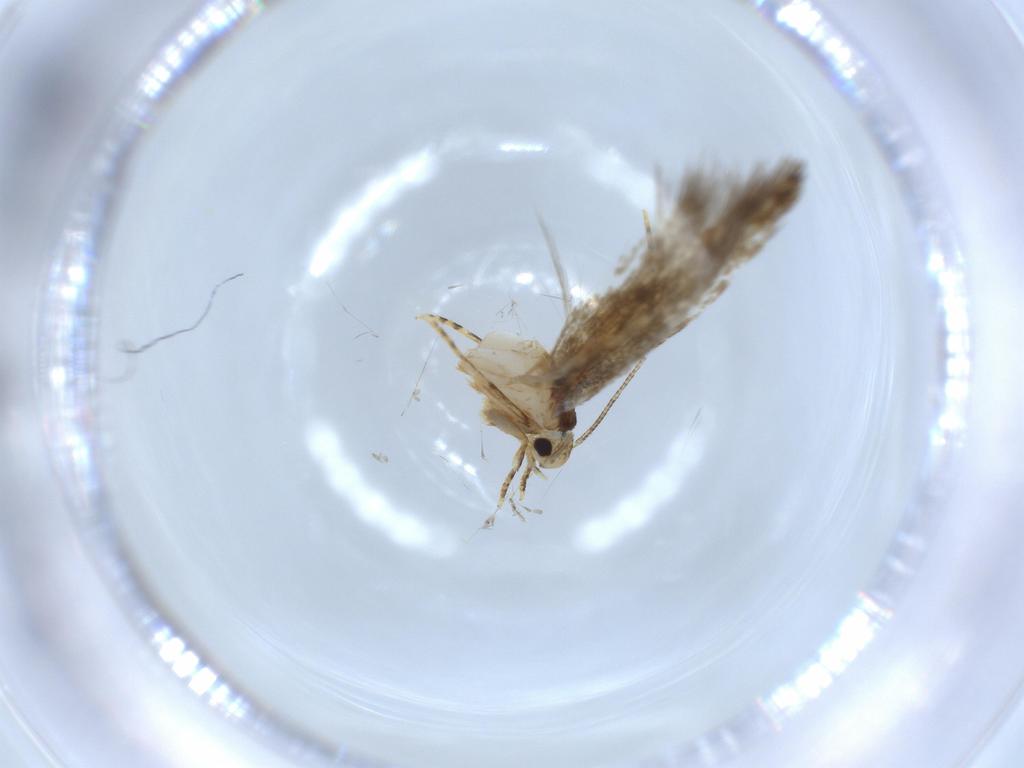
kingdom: Animalia
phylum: Arthropoda
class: Insecta
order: Lepidoptera
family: Tineidae
